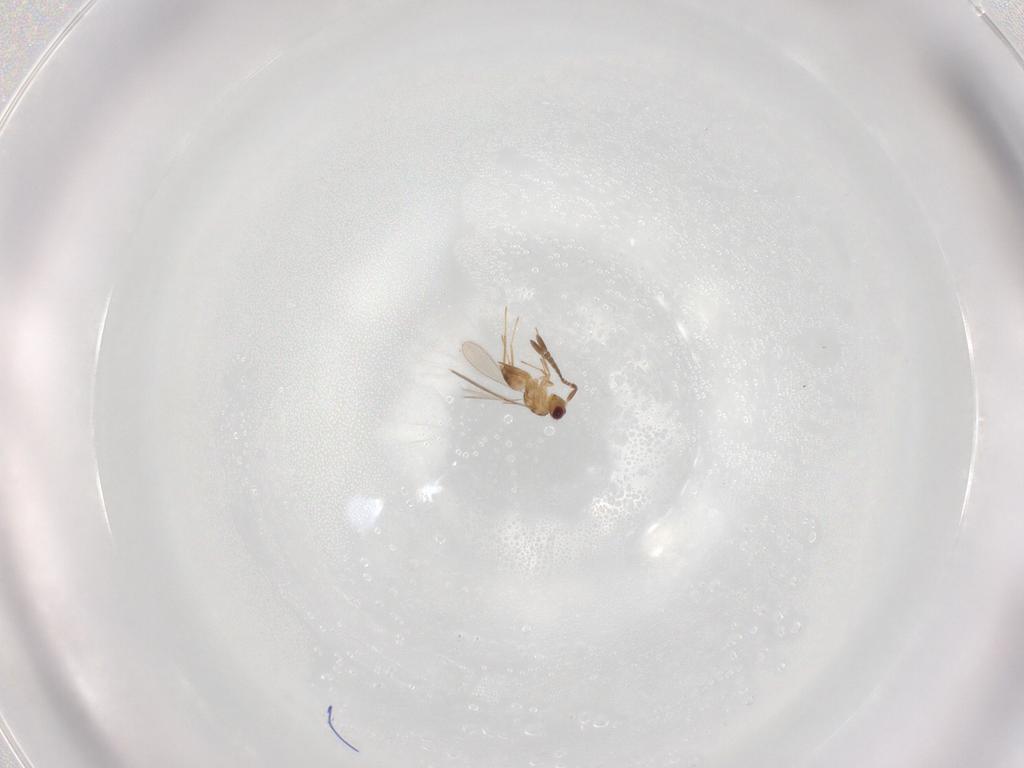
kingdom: Animalia
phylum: Arthropoda
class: Insecta
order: Hymenoptera
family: Mymaridae
